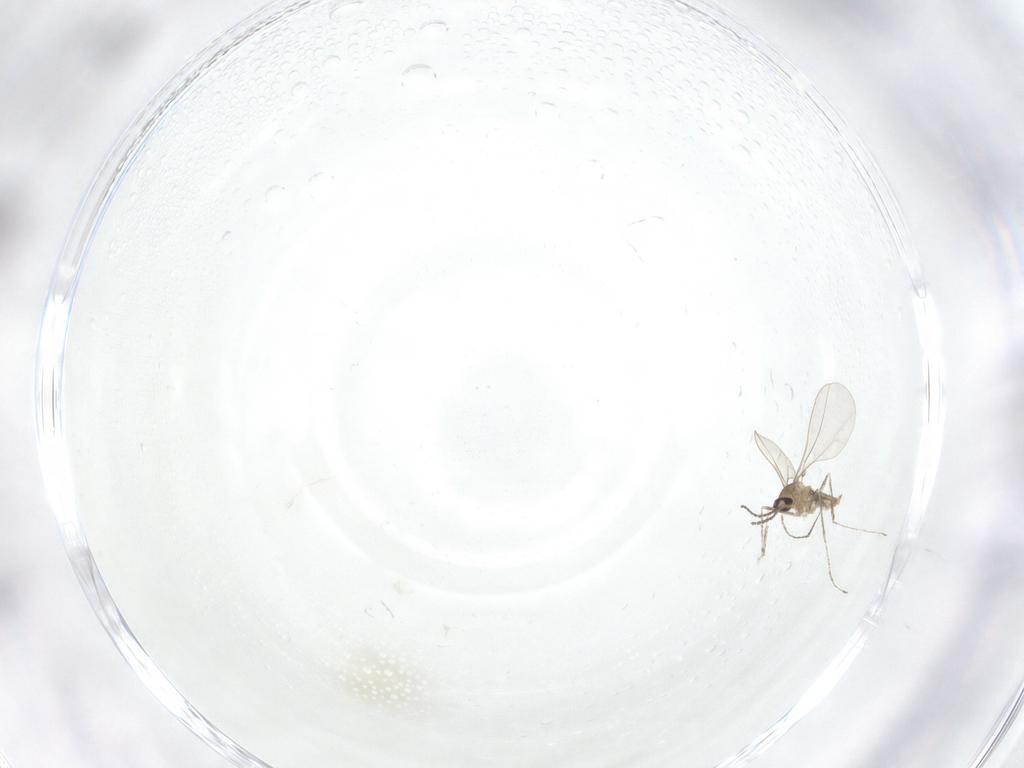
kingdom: Animalia
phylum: Arthropoda
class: Insecta
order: Diptera
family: Cecidomyiidae
